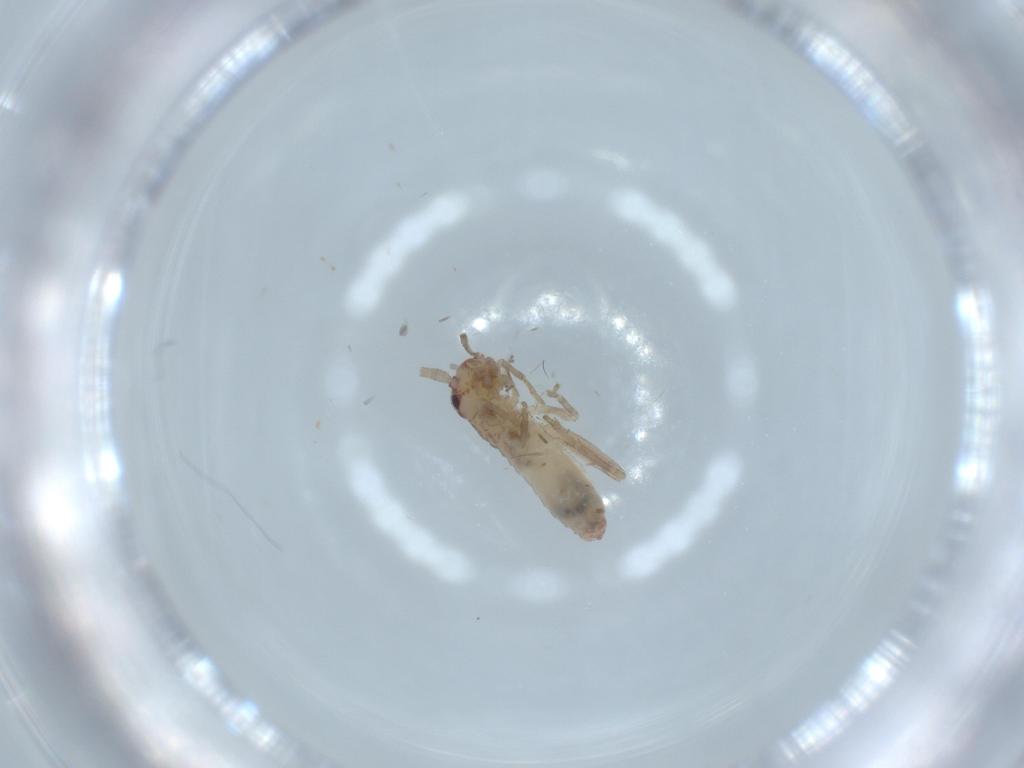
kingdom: Animalia
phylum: Arthropoda
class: Insecta
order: Orthoptera
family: Mogoplistidae
